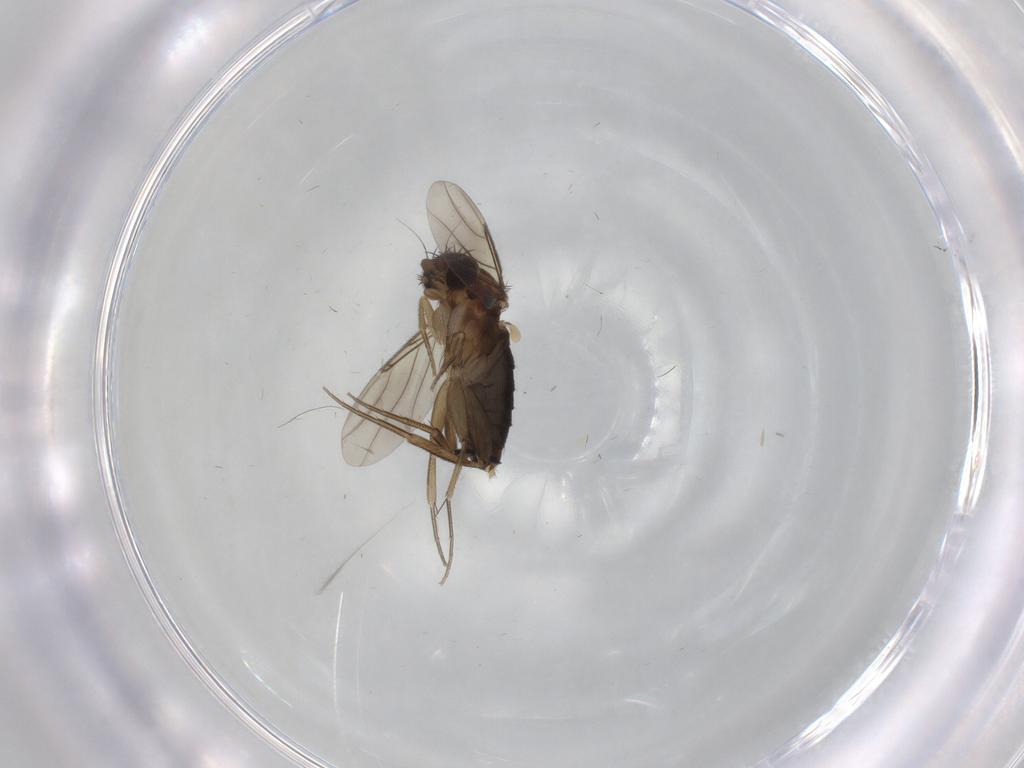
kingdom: Animalia
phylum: Arthropoda
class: Insecta
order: Diptera
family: Phoridae
